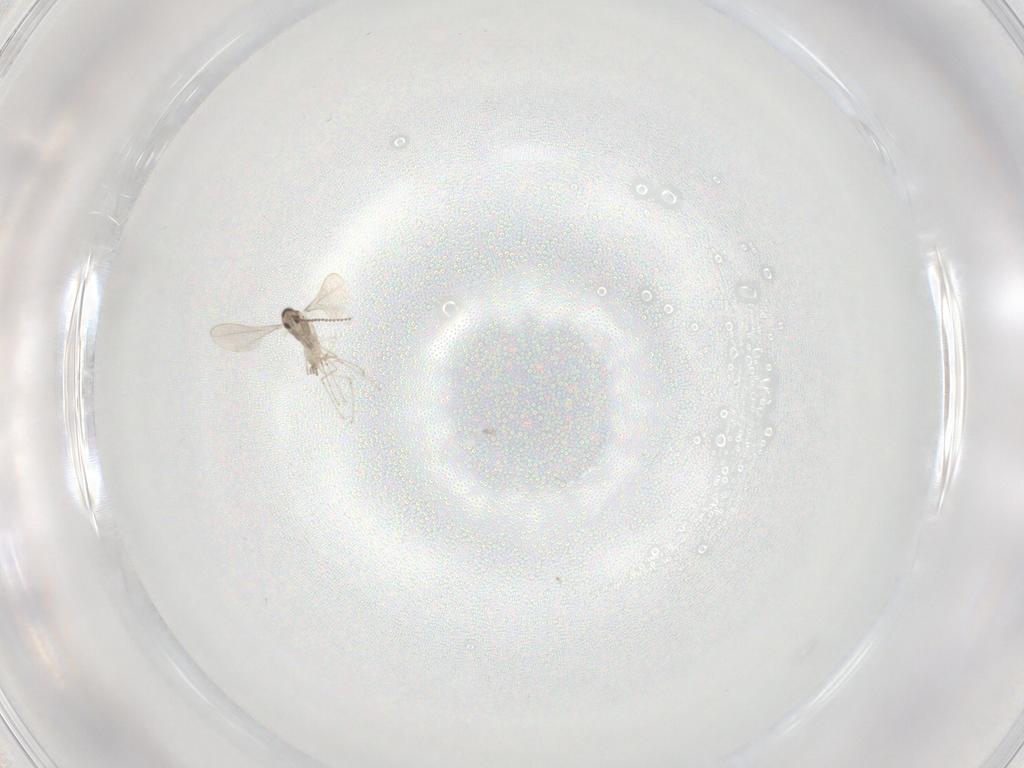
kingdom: Animalia
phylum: Arthropoda
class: Insecta
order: Diptera
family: Cecidomyiidae
